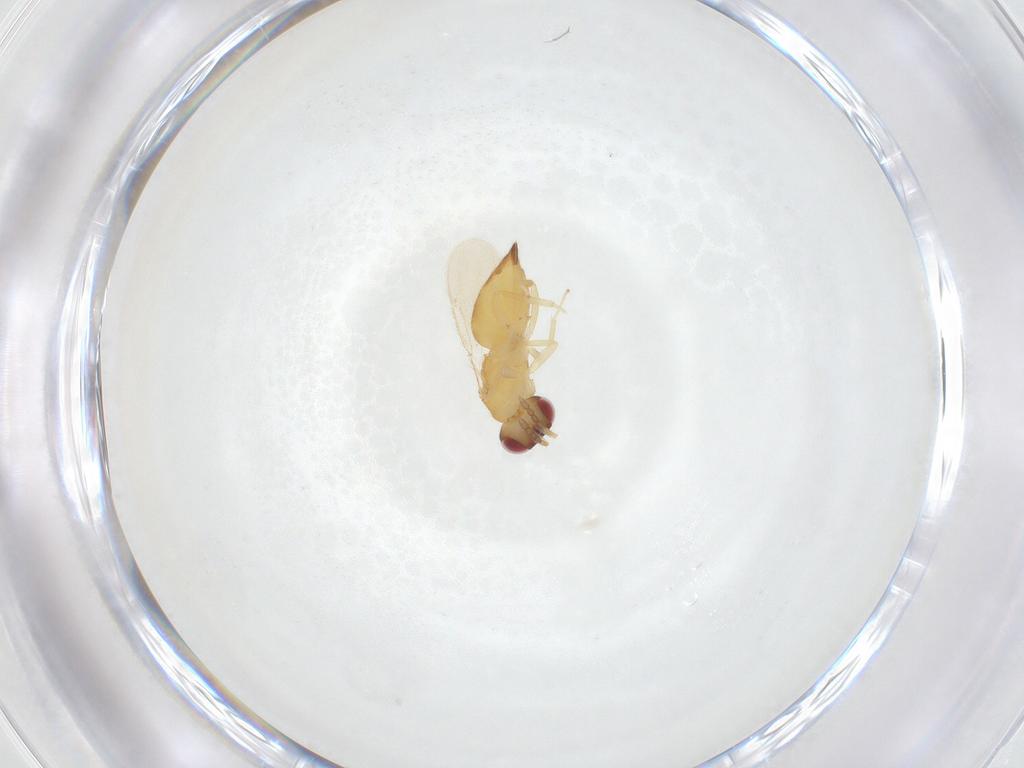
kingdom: Animalia
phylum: Arthropoda
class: Insecta
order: Hymenoptera
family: Eulophidae
